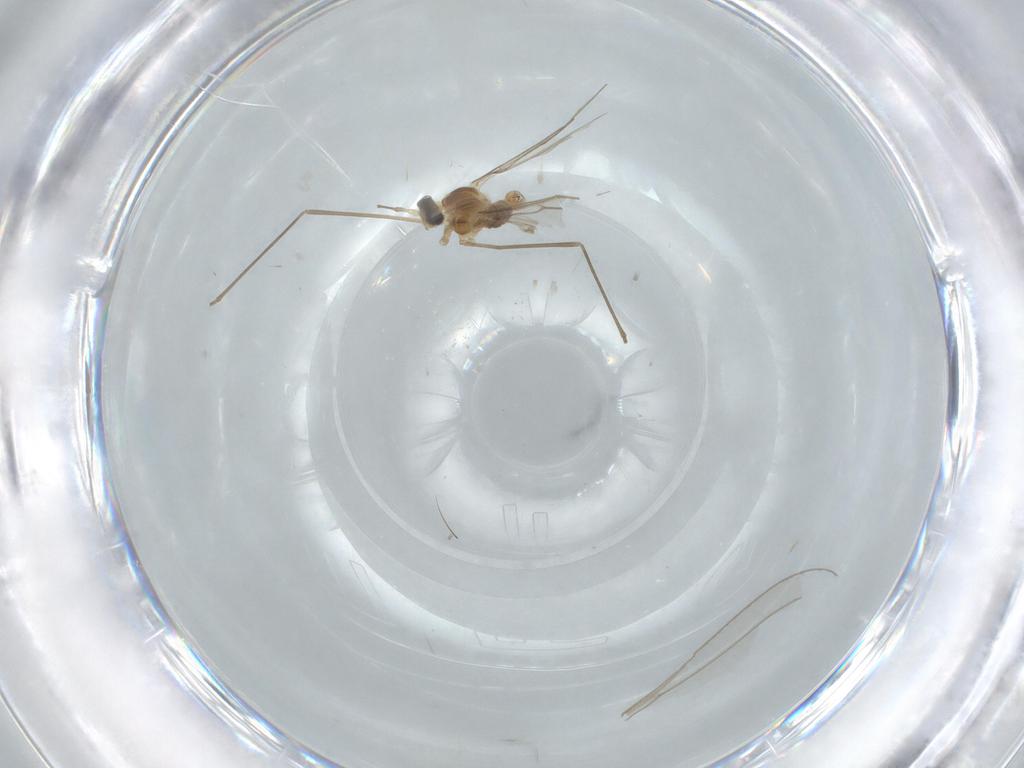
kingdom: Animalia
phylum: Arthropoda
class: Insecta
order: Diptera
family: Cecidomyiidae
